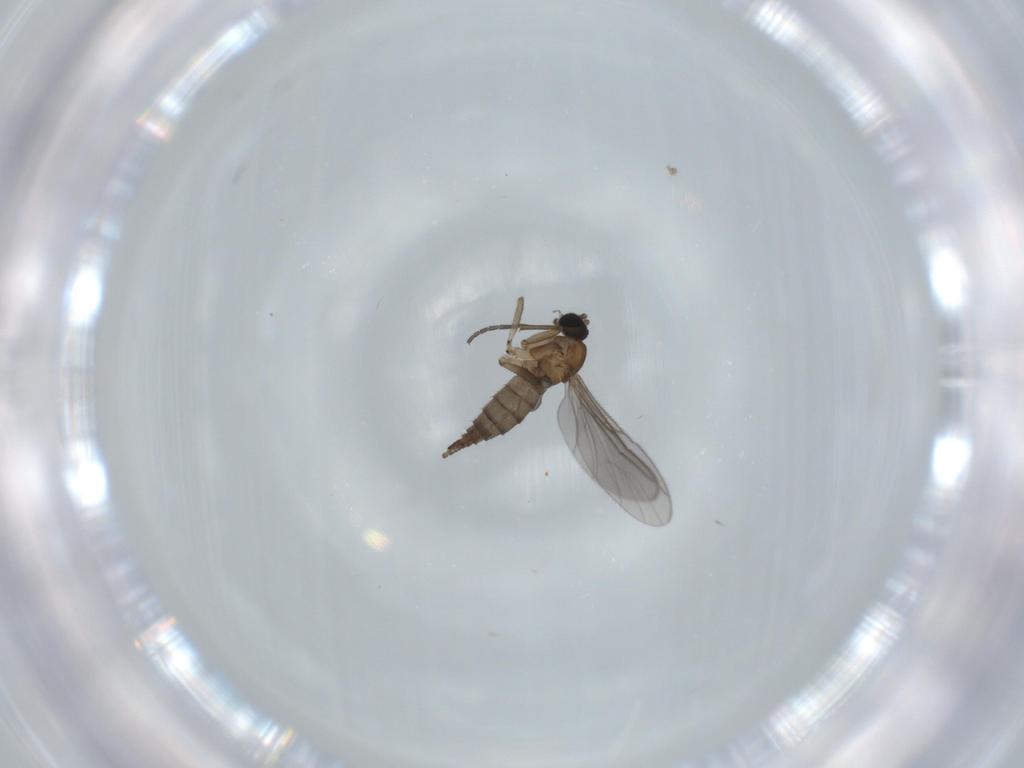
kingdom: Animalia
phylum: Arthropoda
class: Insecta
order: Diptera
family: Sciaridae
